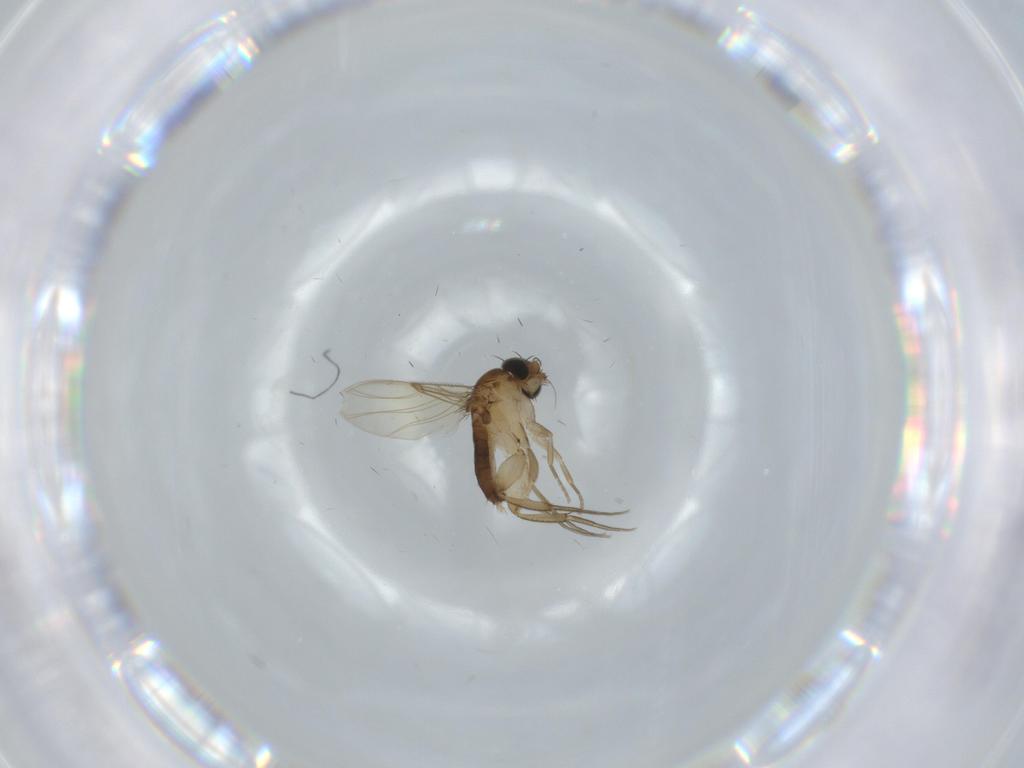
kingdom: Animalia
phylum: Arthropoda
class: Insecta
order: Diptera
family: Phoridae
